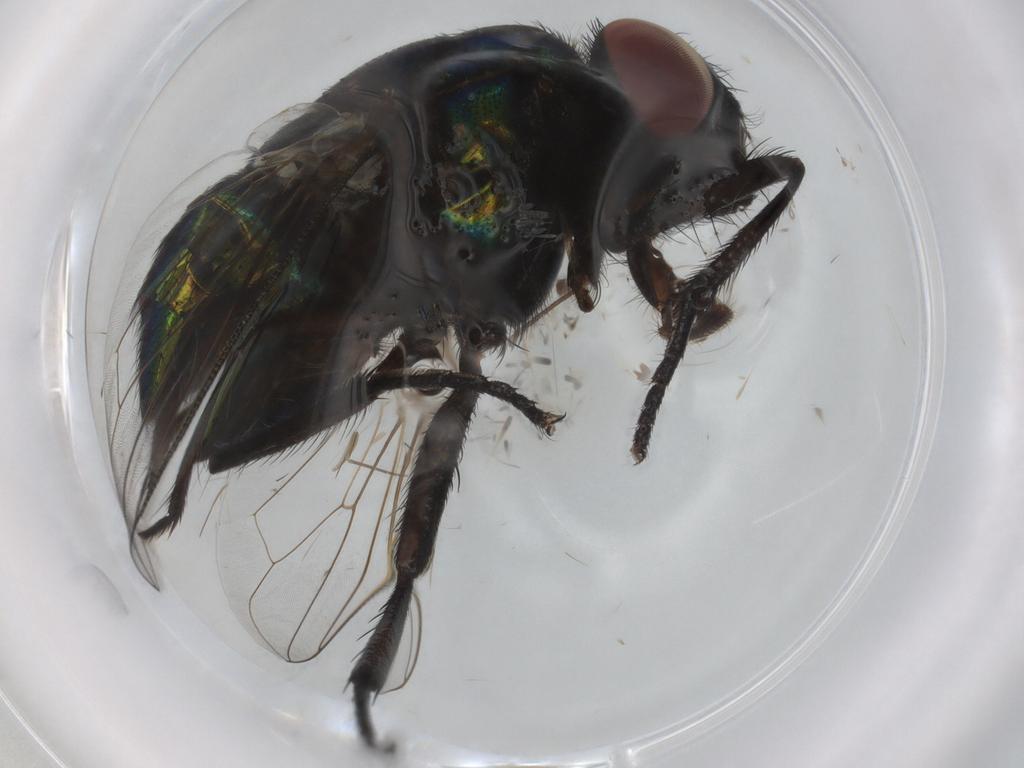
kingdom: Animalia
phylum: Arthropoda
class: Insecta
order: Diptera
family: Sciaridae
